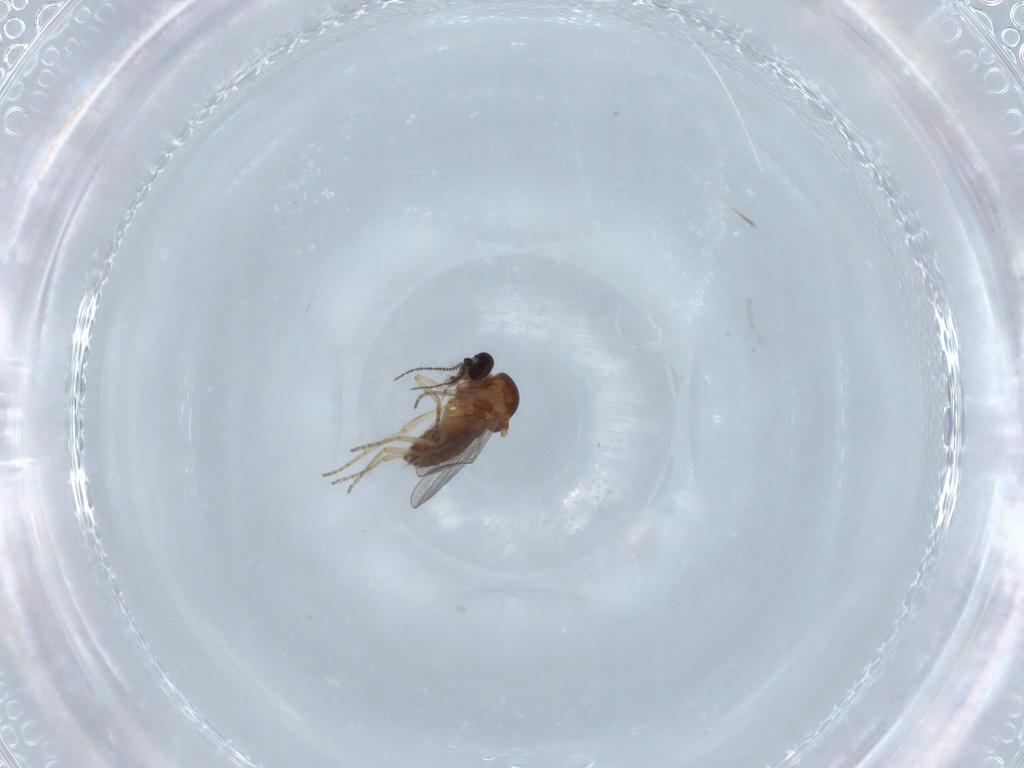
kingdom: Animalia
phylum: Arthropoda
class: Insecta
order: Diptera
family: Ceratopogonidae
